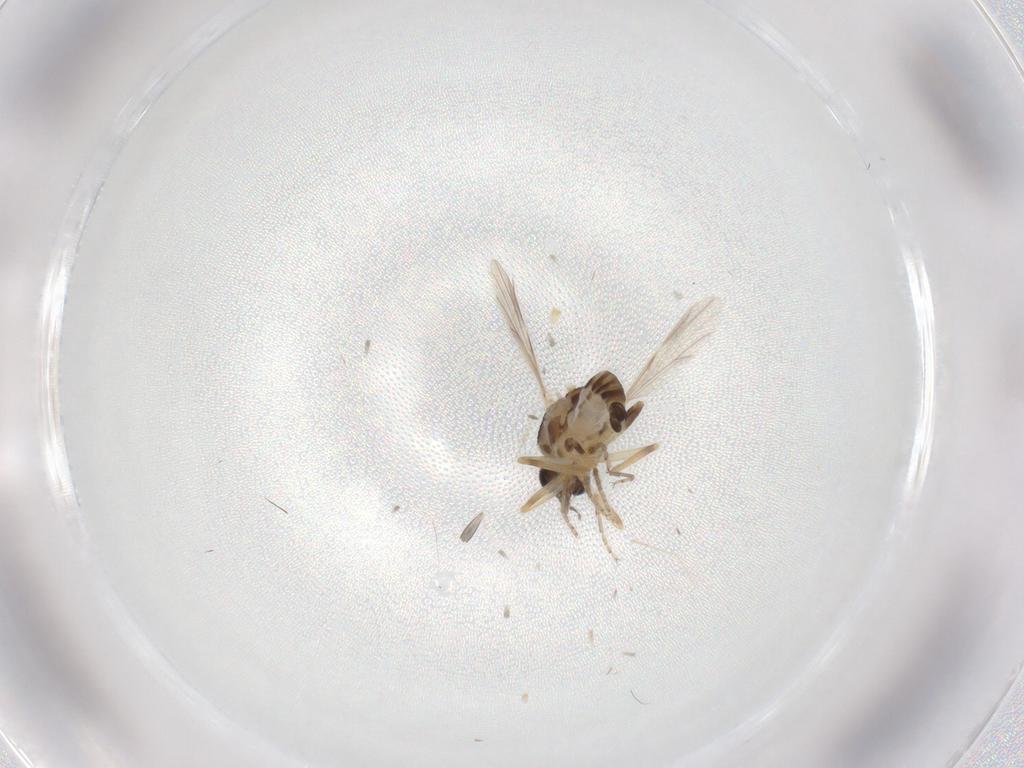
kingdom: Animalia
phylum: Arthropoda
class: Insecta
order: Diptera
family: Ceratopogonidae
